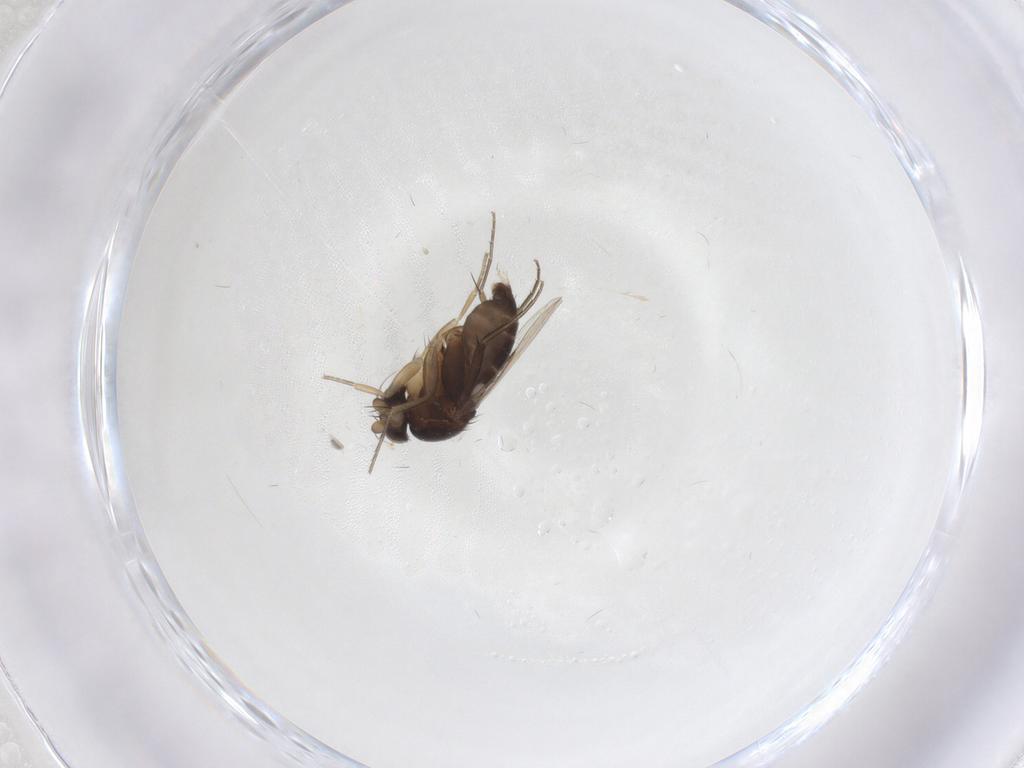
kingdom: Animalia
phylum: Arthropoda
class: Insecta
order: Diptera
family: Phoridae
